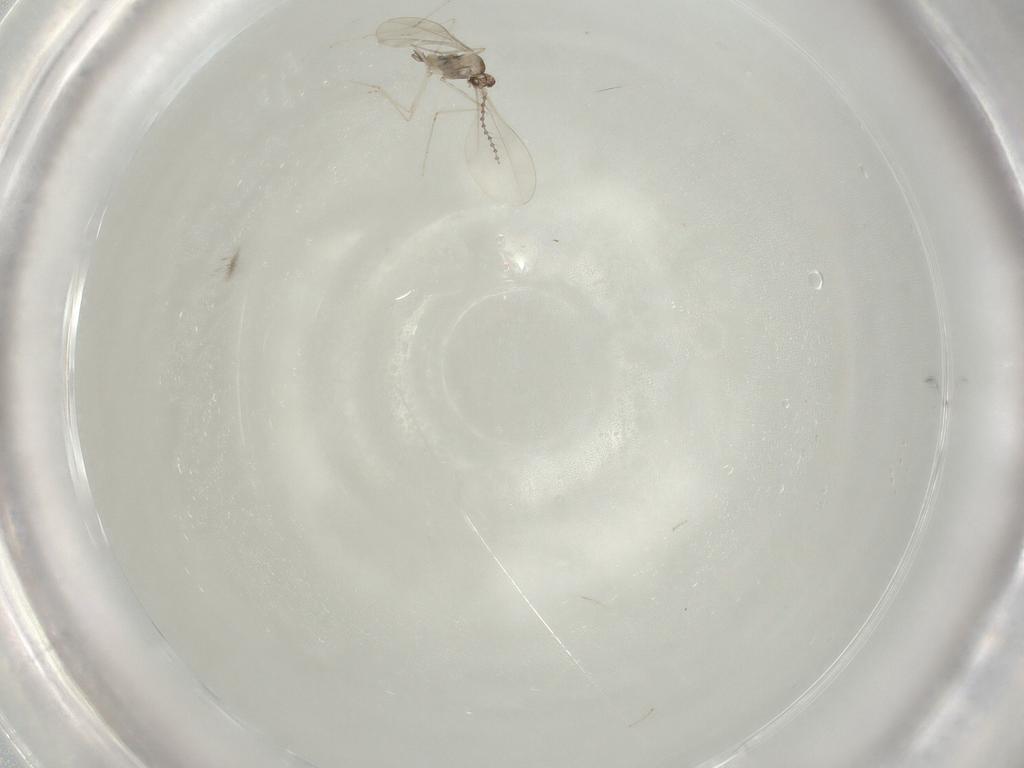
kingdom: Animalia
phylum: Arthropoda
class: Insecta
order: Diptera
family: Cecidomyiidae
